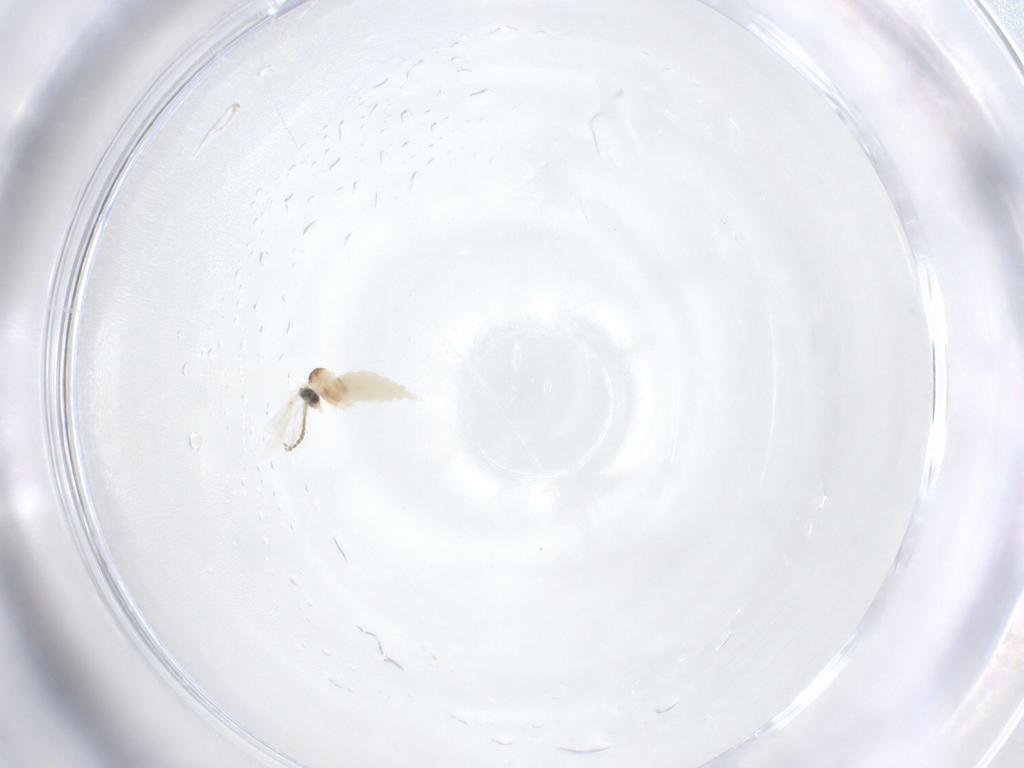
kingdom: Animalia
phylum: Arthropoda
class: Insecta
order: Diptera
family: Cecidomyiidae
